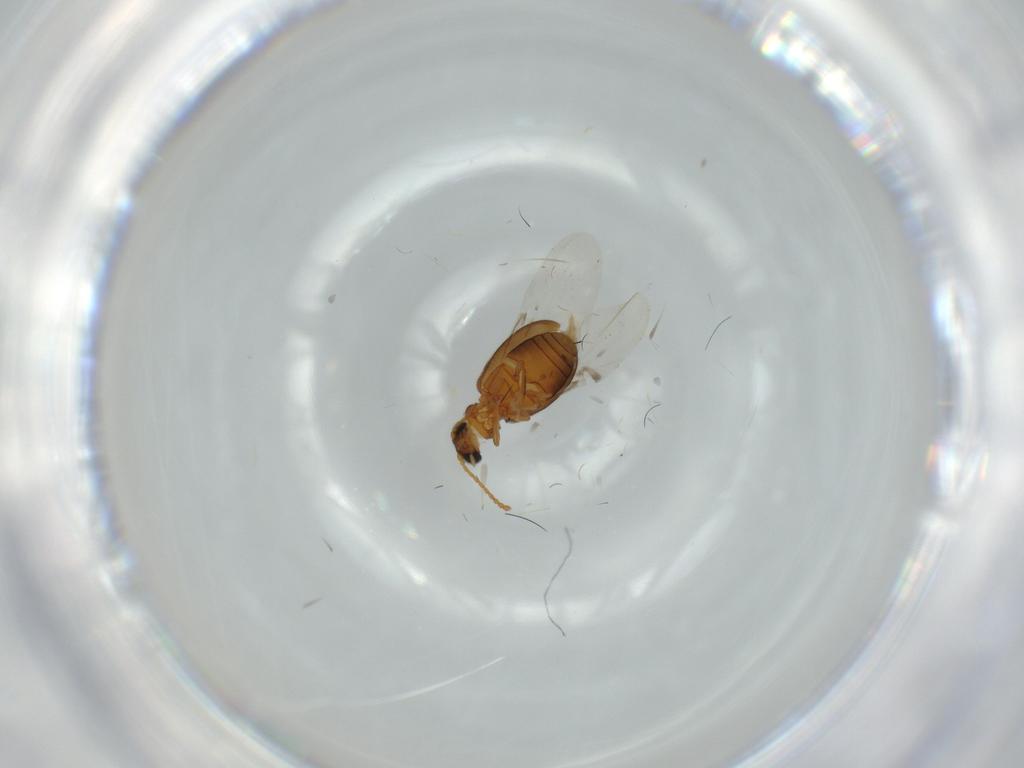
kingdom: Animalia
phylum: Arthropoda
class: Insecta
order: Coleoptera
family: Aderidae
